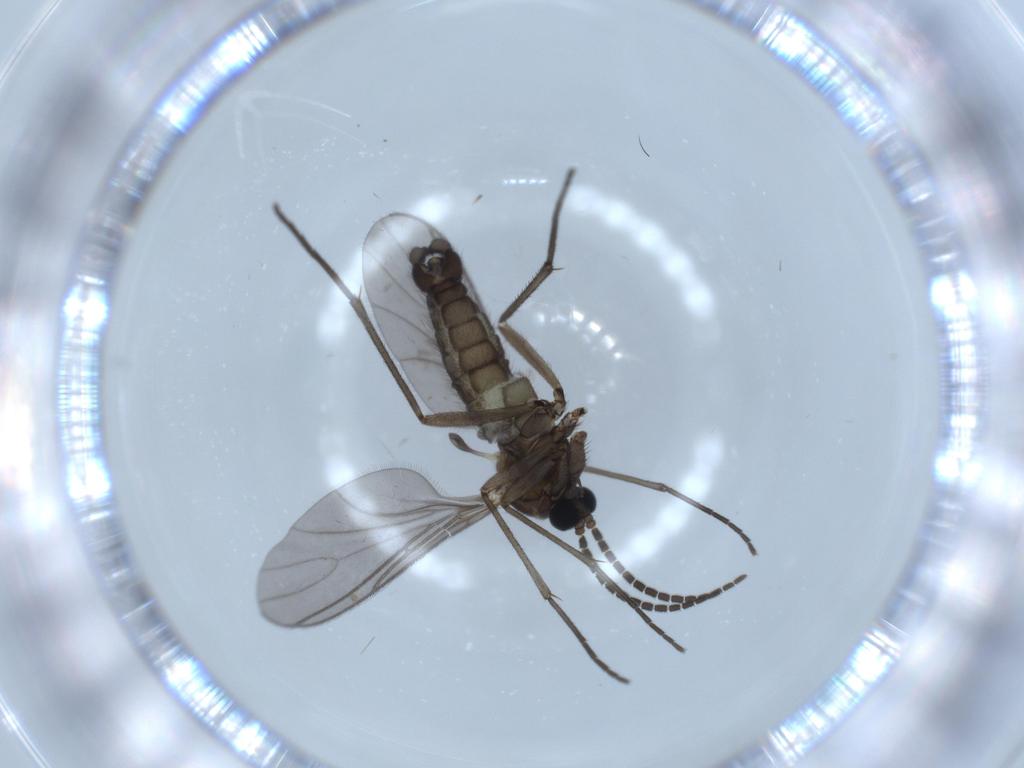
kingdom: Animalia
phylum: Arthropoda
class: Insecta
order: Diptera
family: Sciaridae
